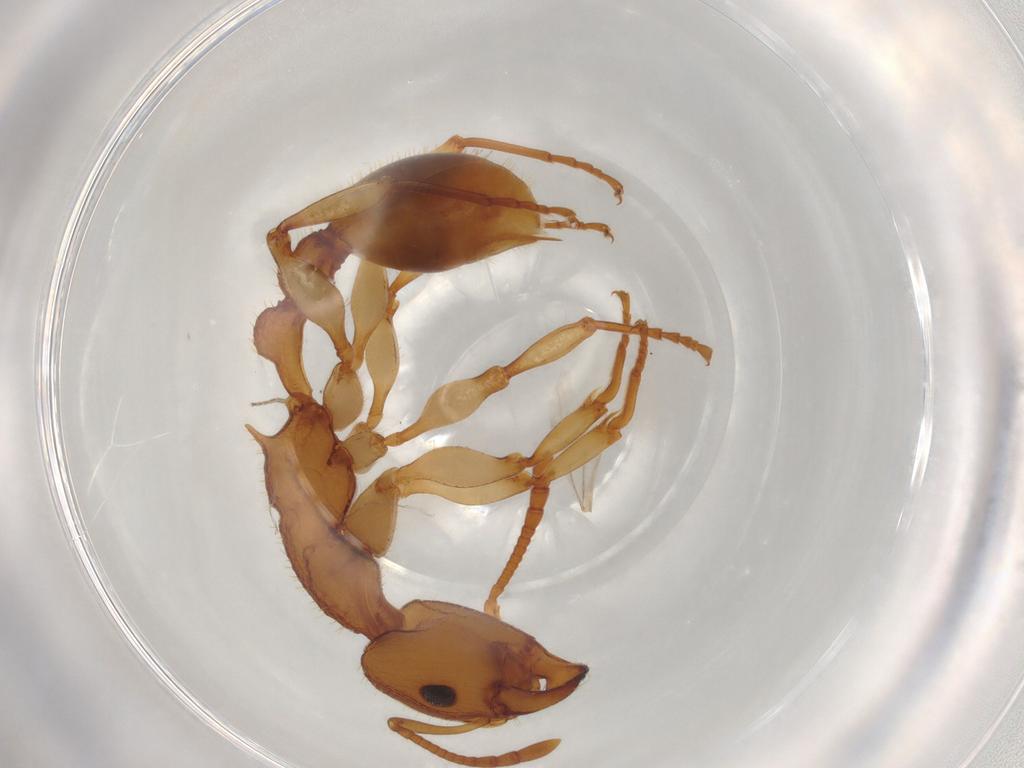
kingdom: Animalia
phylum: Arthropoda
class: Insecta
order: Hymenoptera
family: Formicidae
